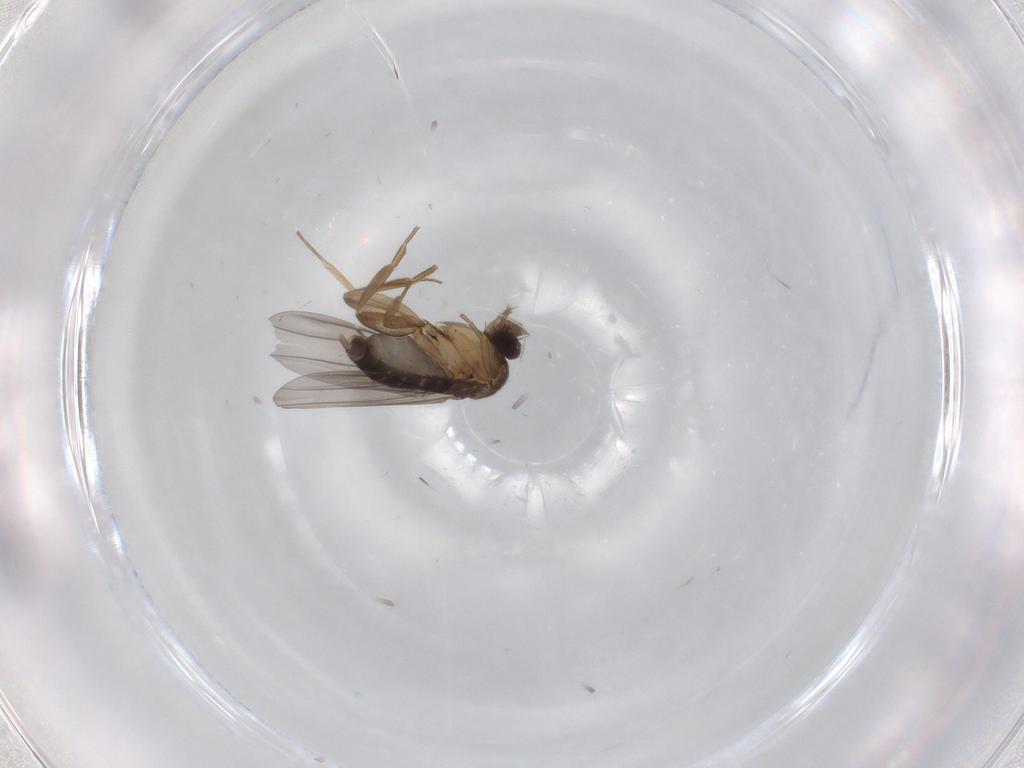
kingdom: Animalia
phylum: Arthropoda
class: Insecta
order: Diptera
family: Phoridae
